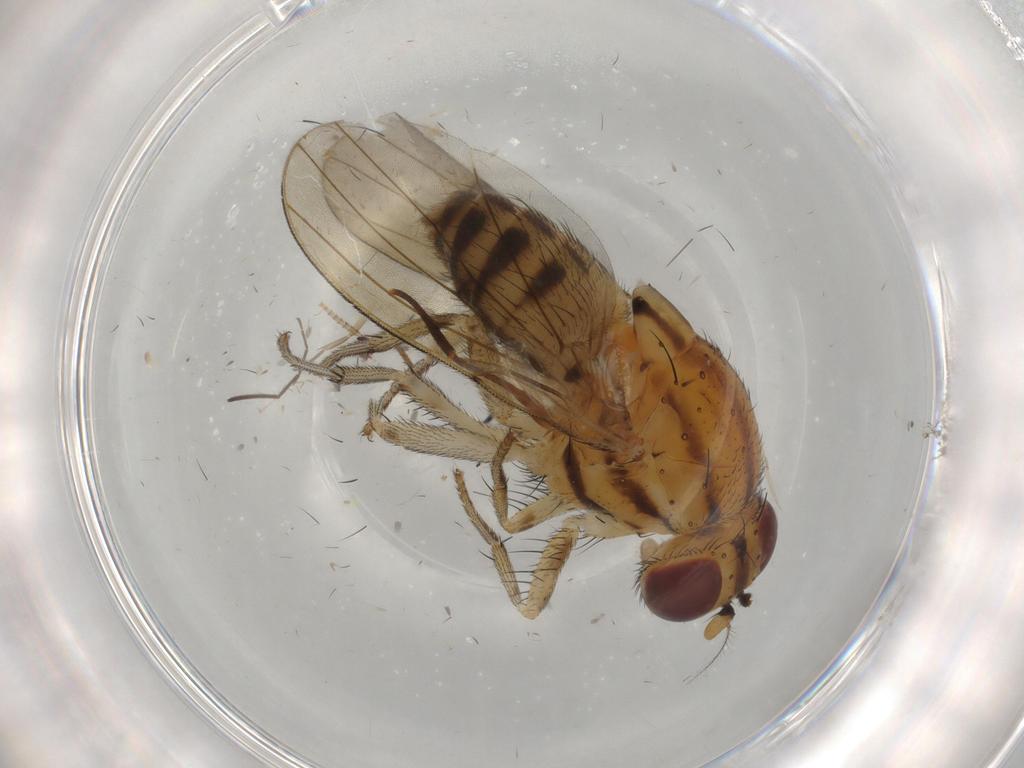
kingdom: Animalia
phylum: Arthropoda
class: Insecta
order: Diptera
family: Lauxaniidae
